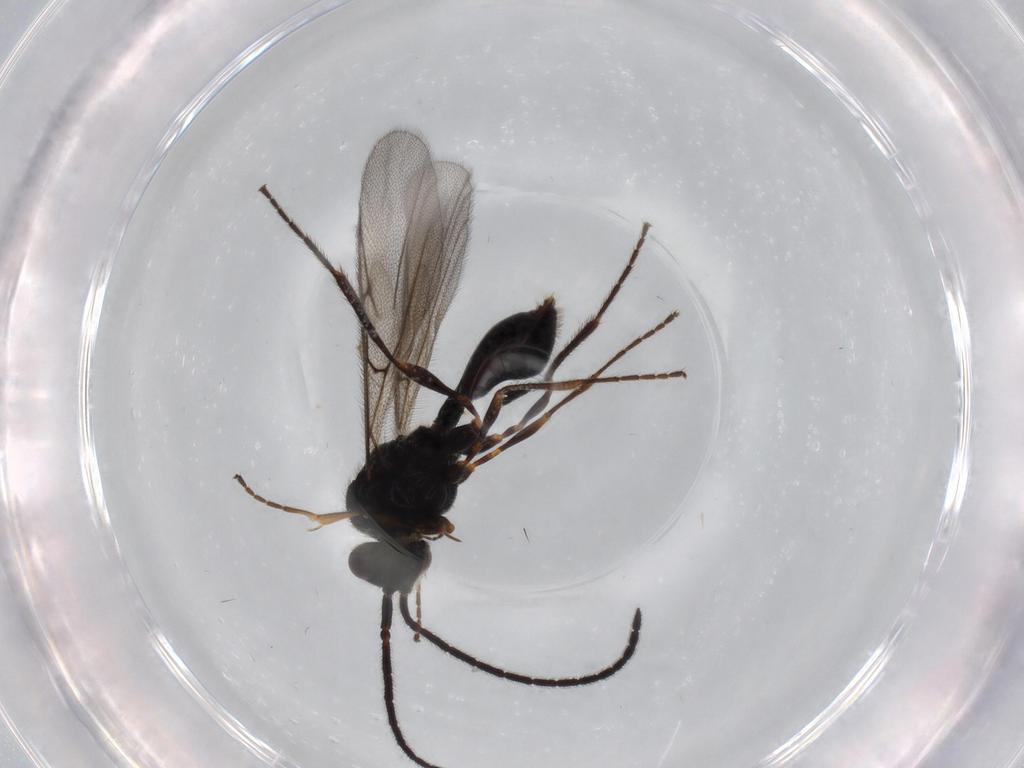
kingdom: Animalia
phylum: Arthropoda
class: Insecta
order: Hymenoptera
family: Diapriidae
